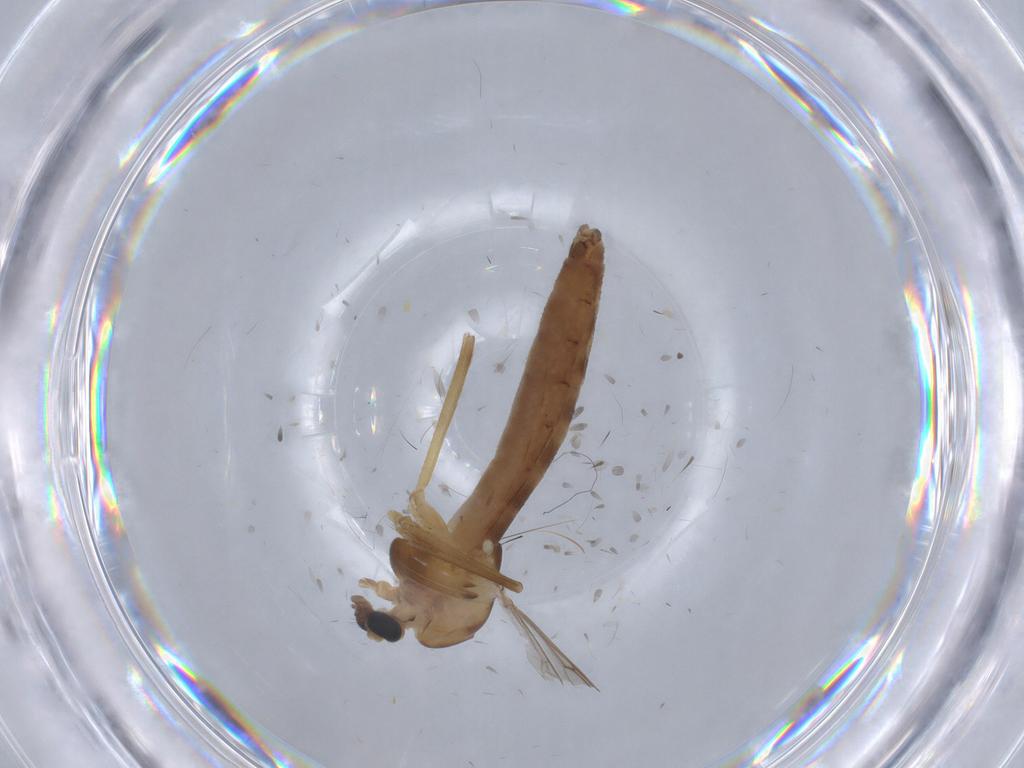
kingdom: Animalia
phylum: Arthropoda
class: Insecta
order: Diptera
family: Chironomidae
